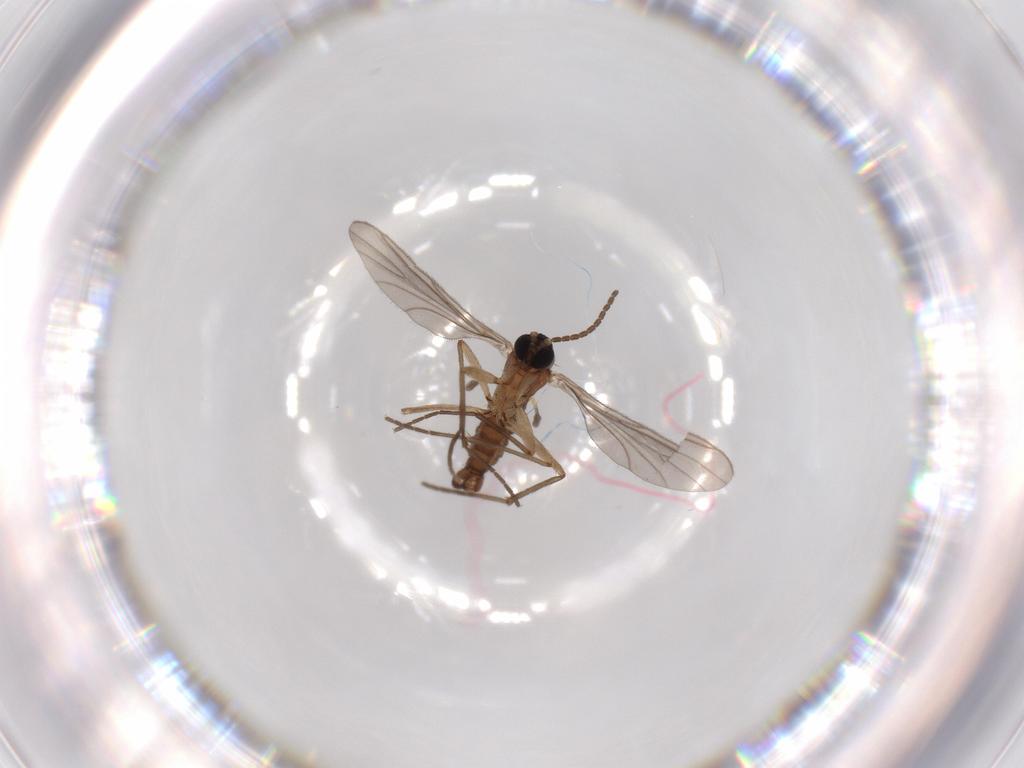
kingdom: Animalia
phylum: Arthropoda
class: Insecta
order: Diptera
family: Sciaridae
